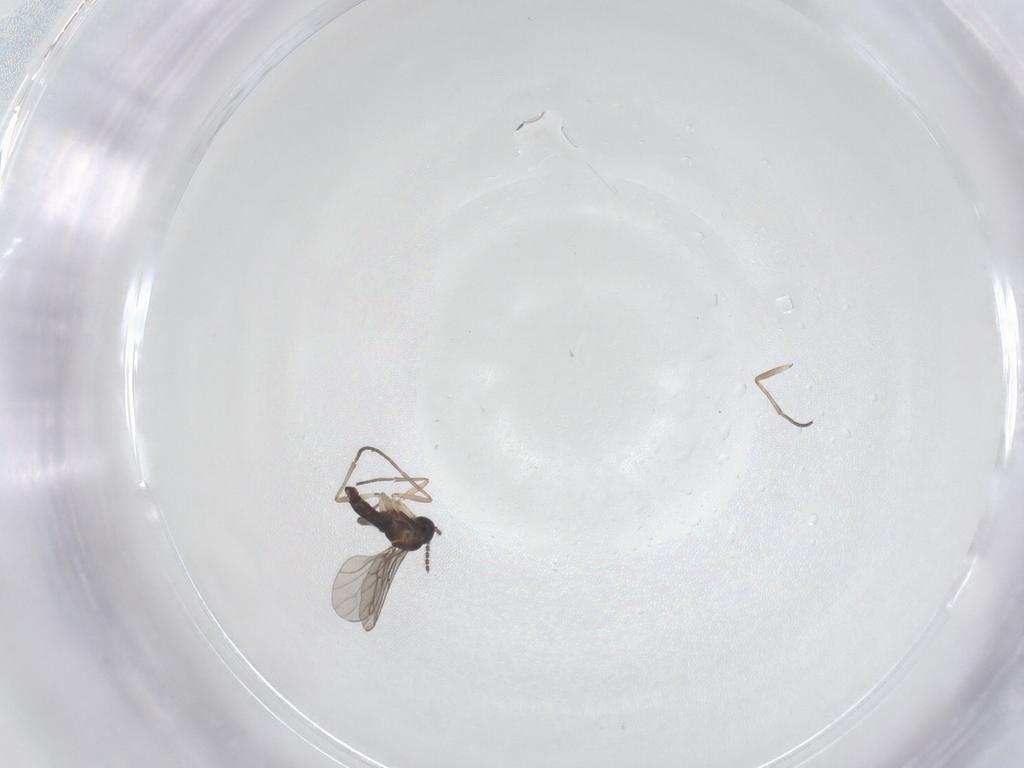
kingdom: Animalia
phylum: Arthropoda
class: Insecta
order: Diptera
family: Sciaridae
